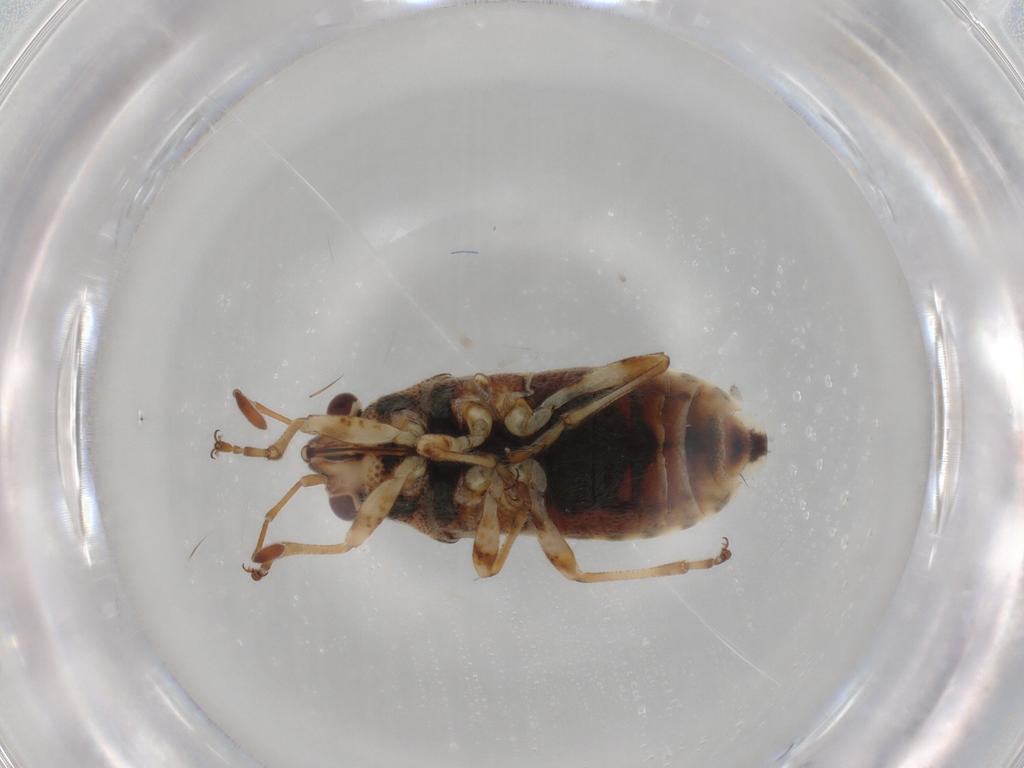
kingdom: Animalia
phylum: Arthropoda
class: Insecta
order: Hemiptera
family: Lygaeidae
